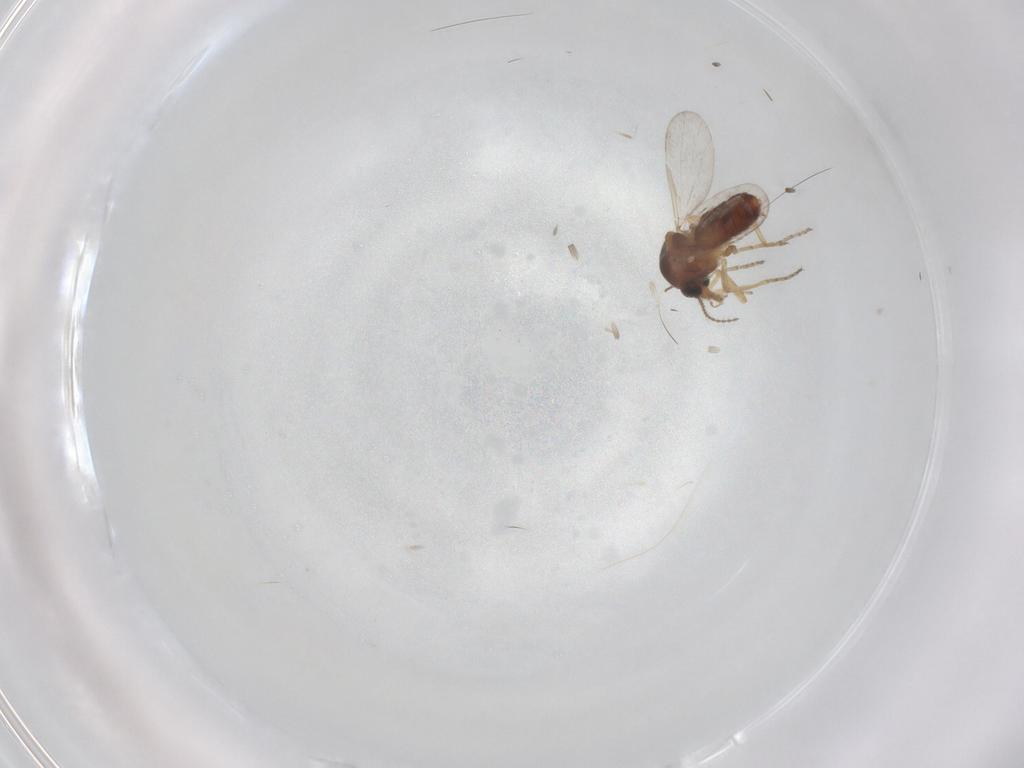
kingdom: Animalia
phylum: Arthropoda
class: Insecta
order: Diptera
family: Ceratopogonidae
